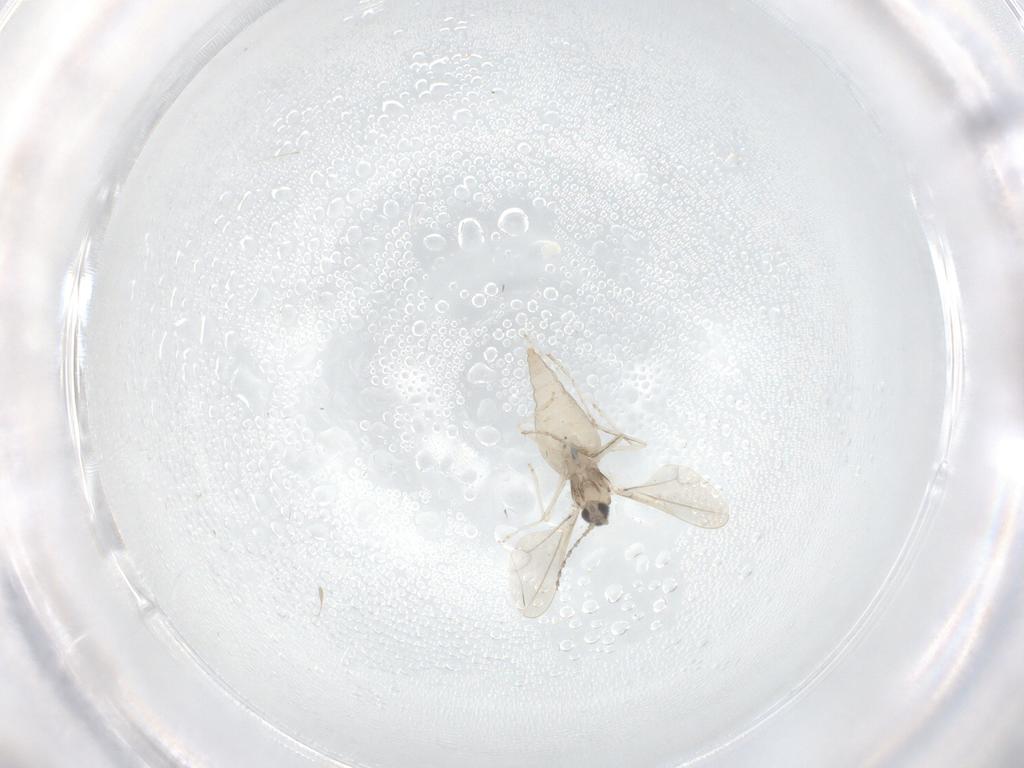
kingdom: Animalia
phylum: Arthropoda
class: Insecta
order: Diptera
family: Cecidomyiidae
